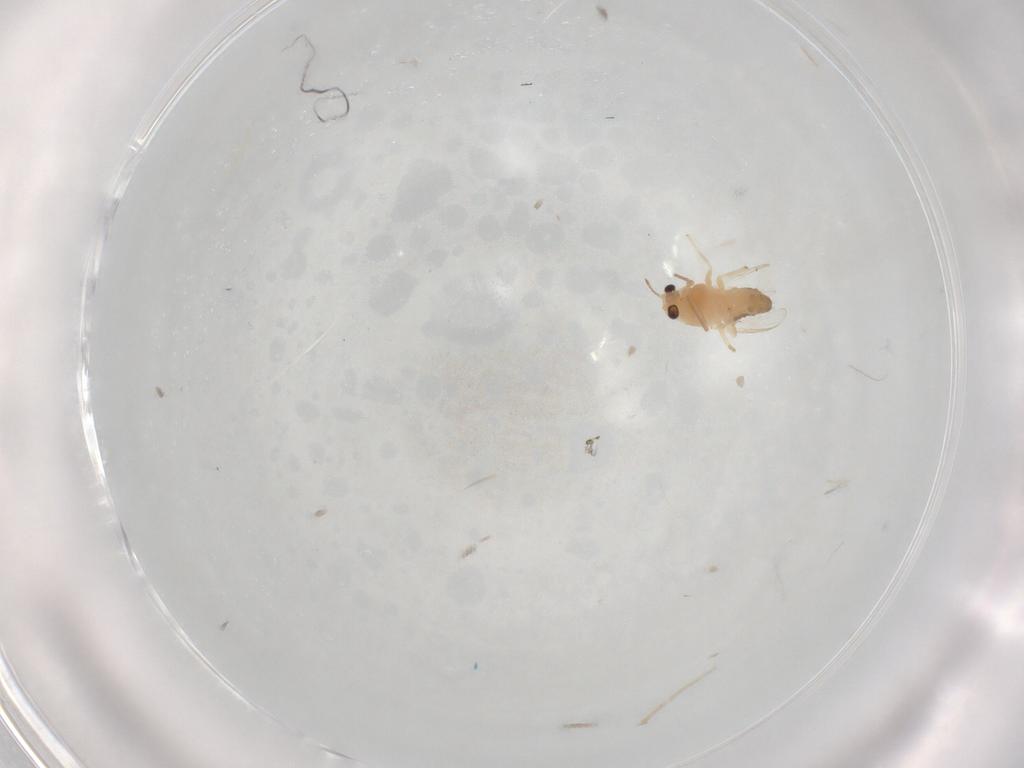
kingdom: Animalia
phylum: Arthropoda
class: Insecta
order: Diptera
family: Chironomidae
